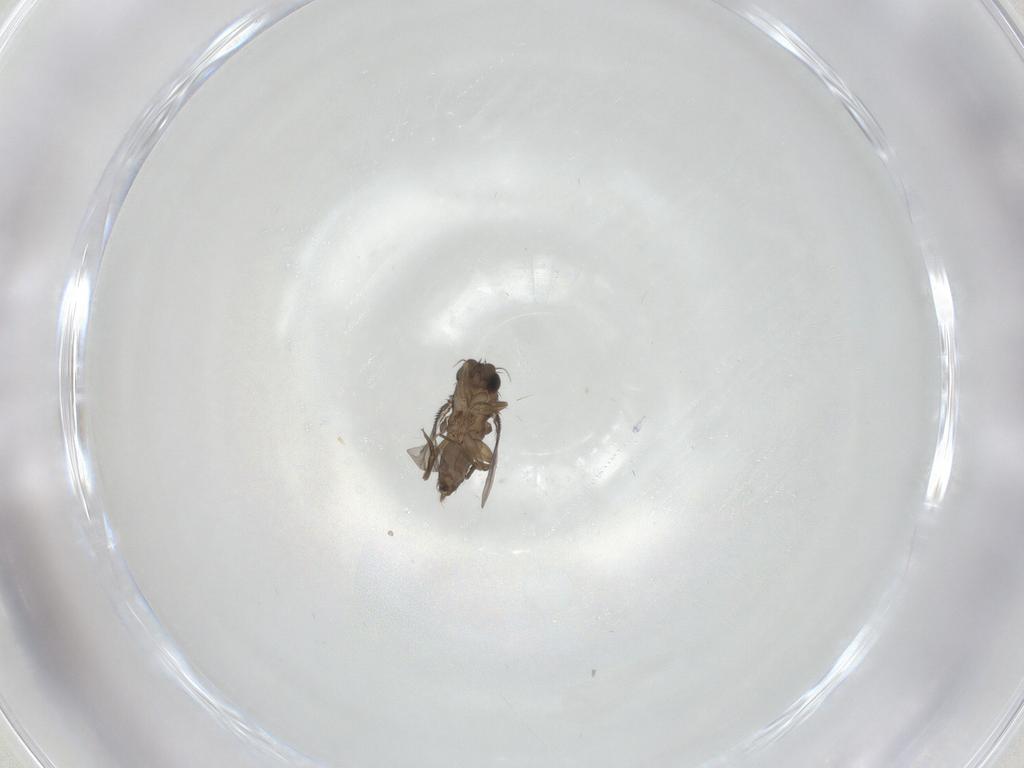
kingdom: Animalia
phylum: Arthropoda
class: Insecta
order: Diptera
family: Phoridae
